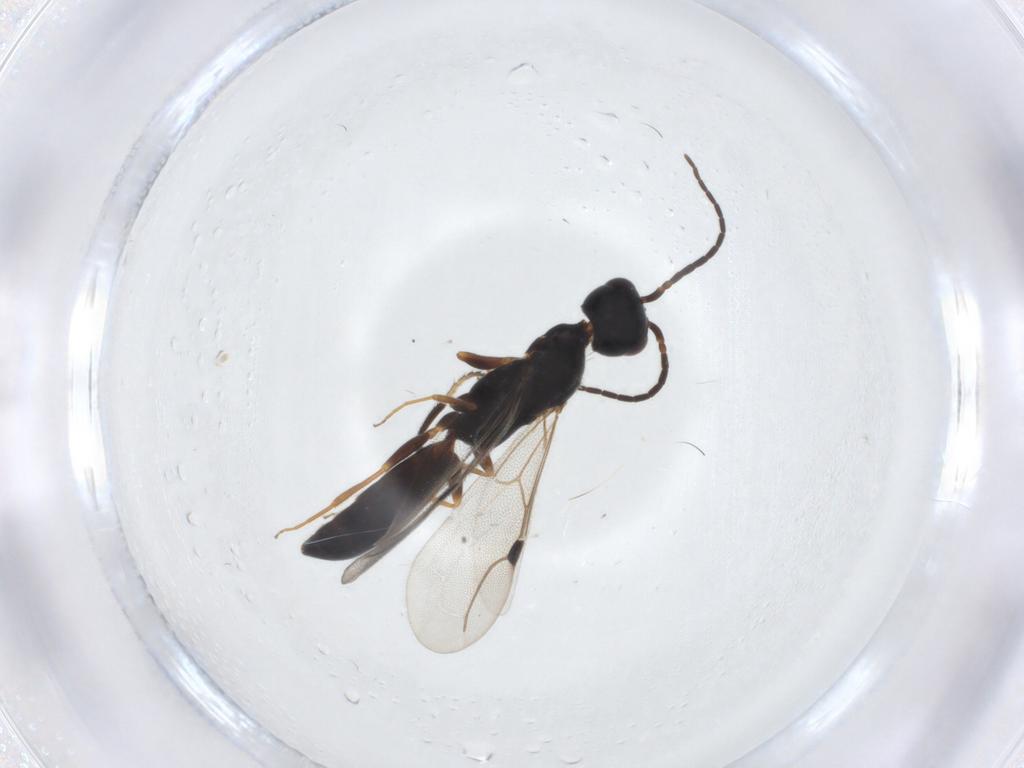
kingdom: Animalia
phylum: Arthropoda
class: Insecta
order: Hymenoptera
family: Bethylidae
